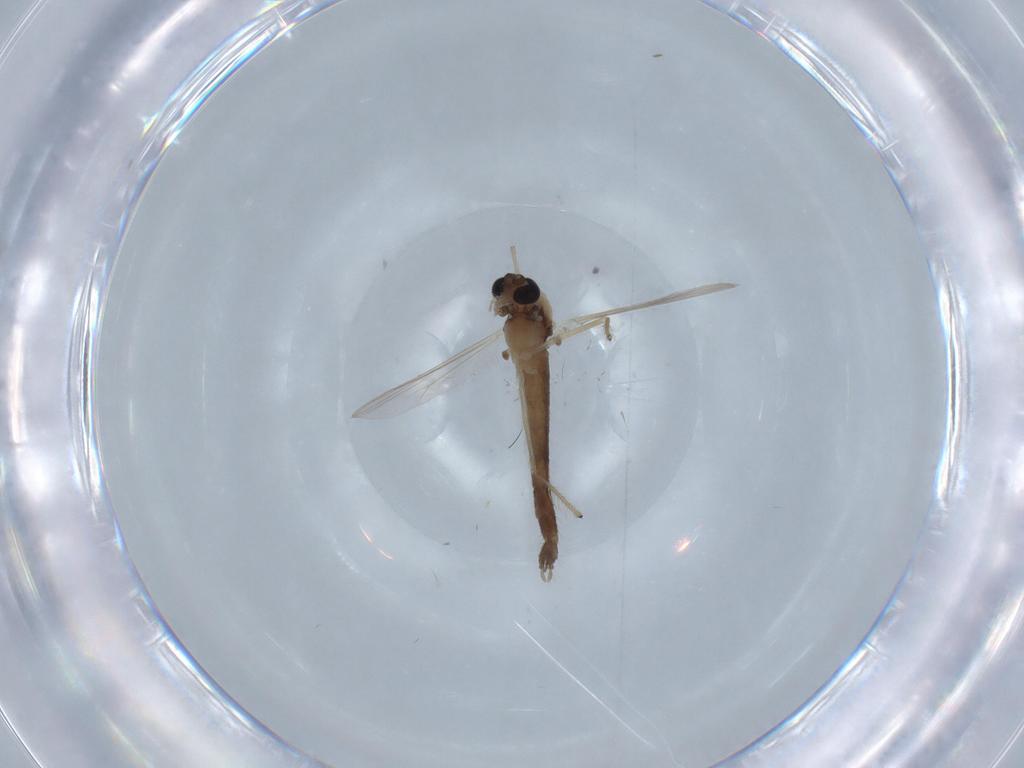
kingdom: Animalia
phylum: Arthropoda
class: Insecta
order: Diptera
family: Chironomidae
